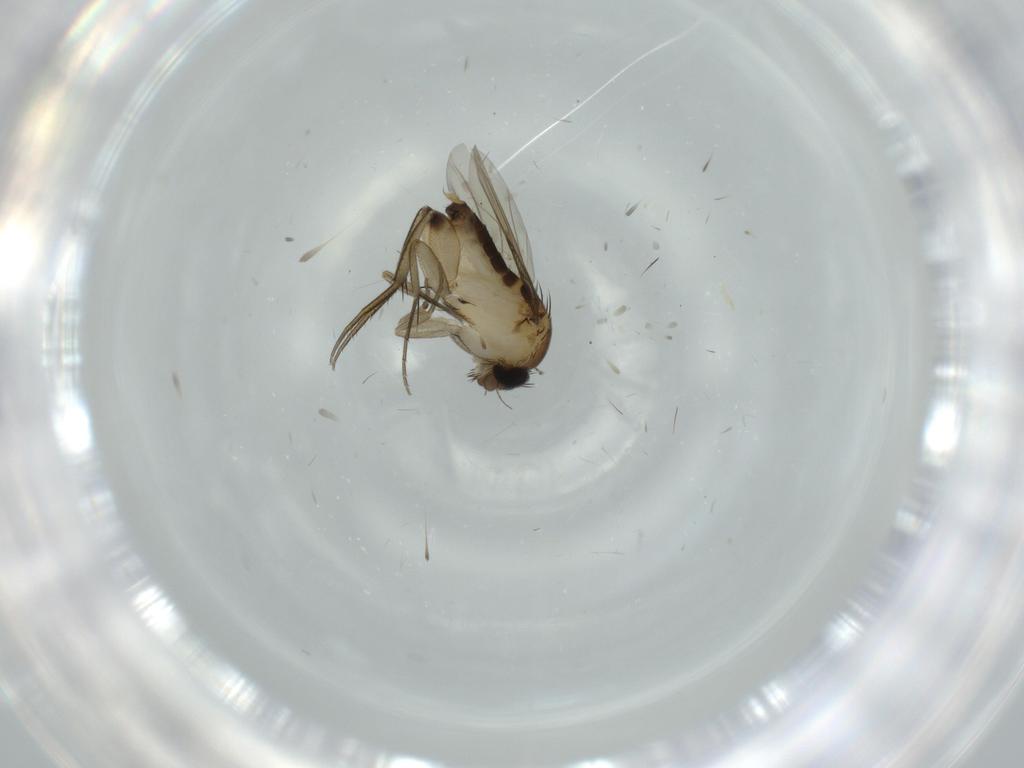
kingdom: Animalia
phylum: Arthropoda
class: Insecta
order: Diptera
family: Phoridae
